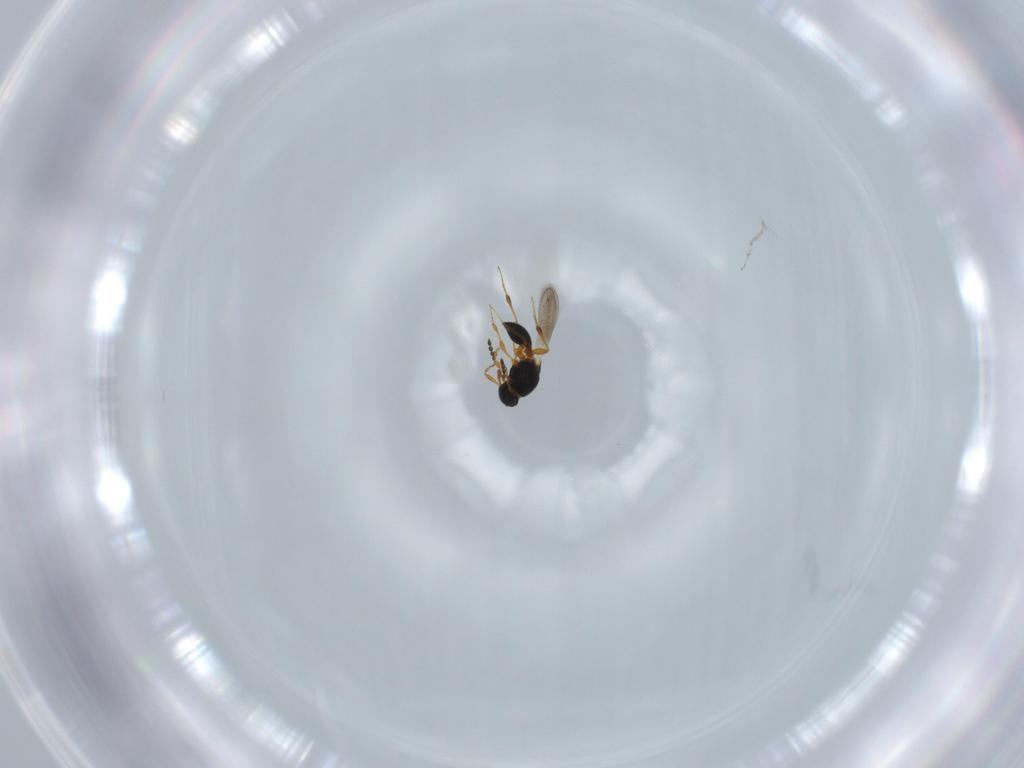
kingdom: Animalia
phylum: Arthropoda
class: Insecta
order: Hymenoptera
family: Platygastridae
